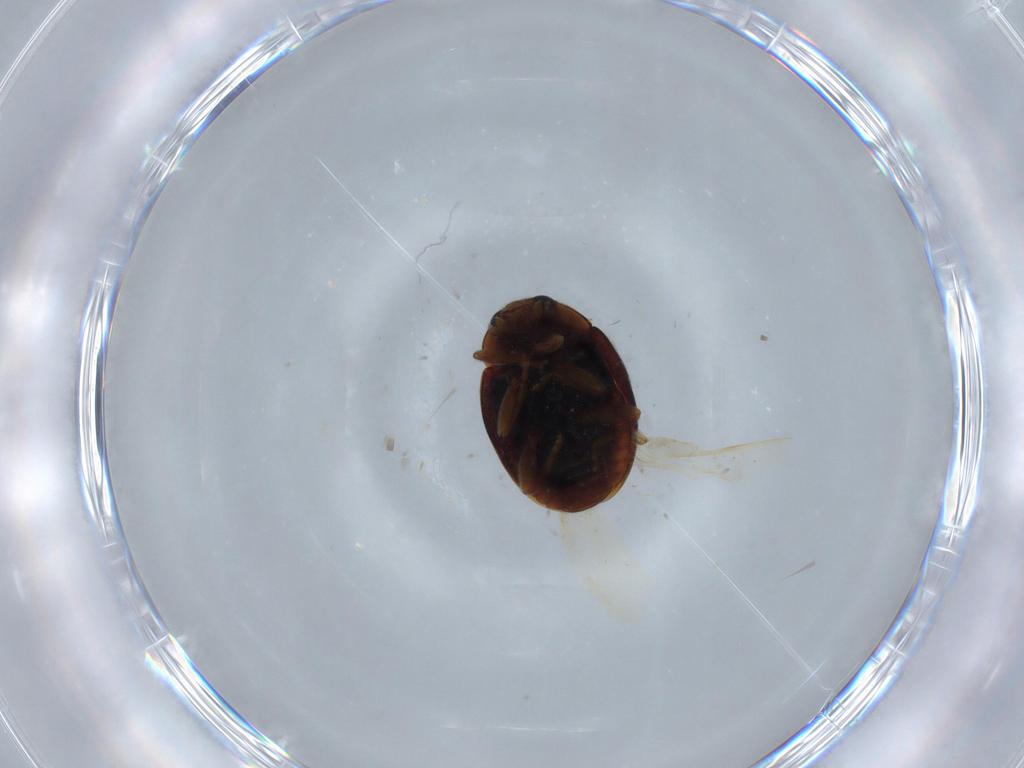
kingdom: Animalia
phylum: Arthropoda
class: Insecta
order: Coleoptera
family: Coccinellidae
